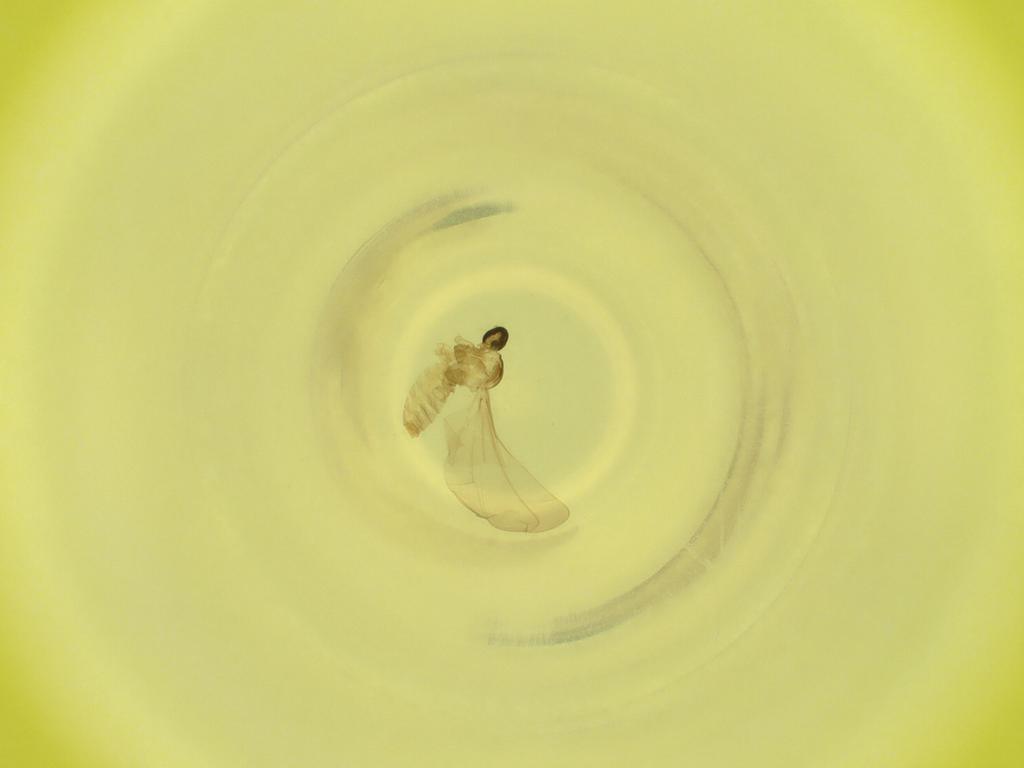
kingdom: Animalia
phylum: Arthropoda
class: Insecta
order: Diptera
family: Cecidomyiidae
